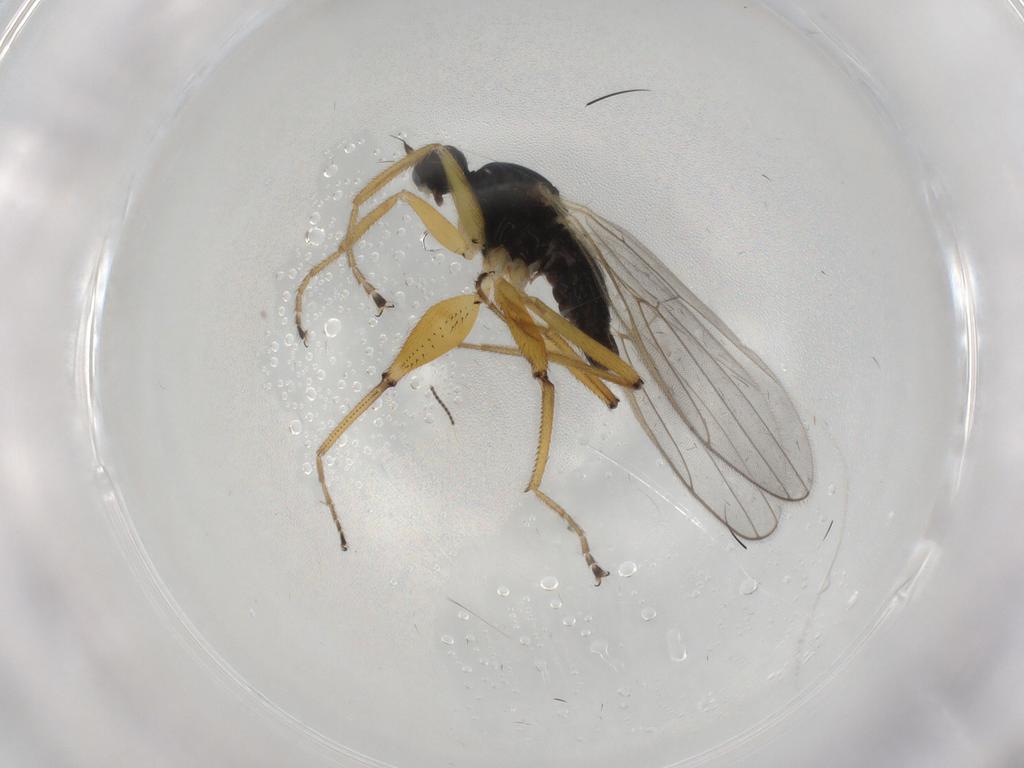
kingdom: Animalia
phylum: Arthropoda
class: Insecta
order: Diptera
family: Hybotidae
